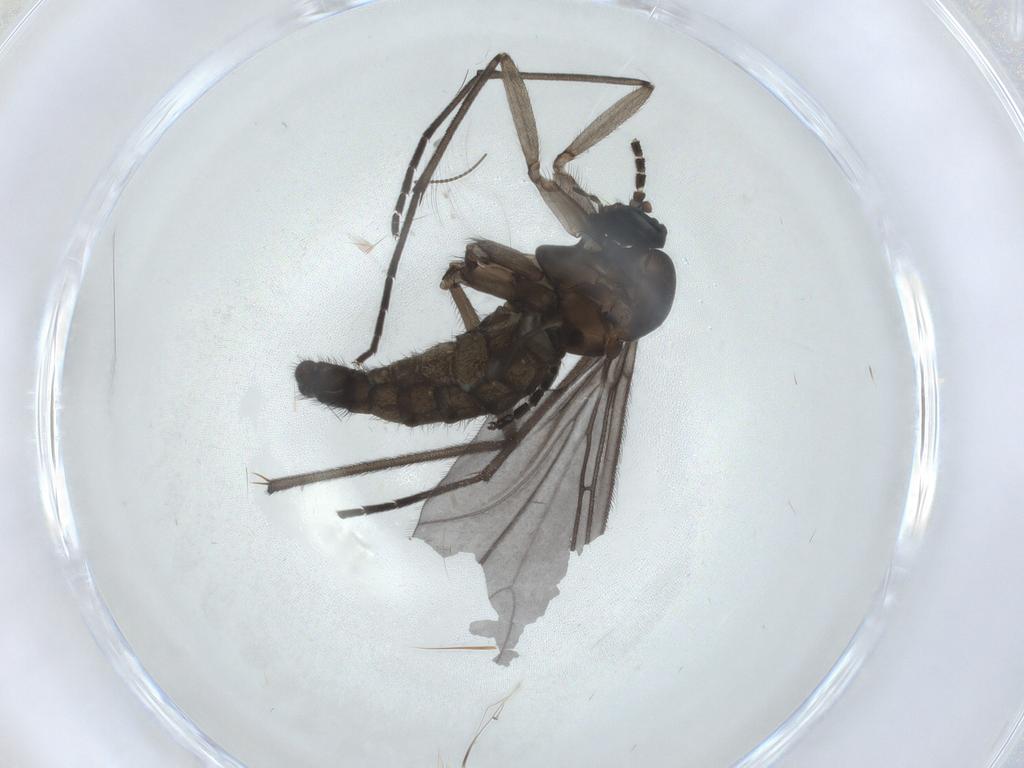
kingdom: Animalia
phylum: Arthropoda
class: Insecta
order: Diptera
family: Sciaridae
